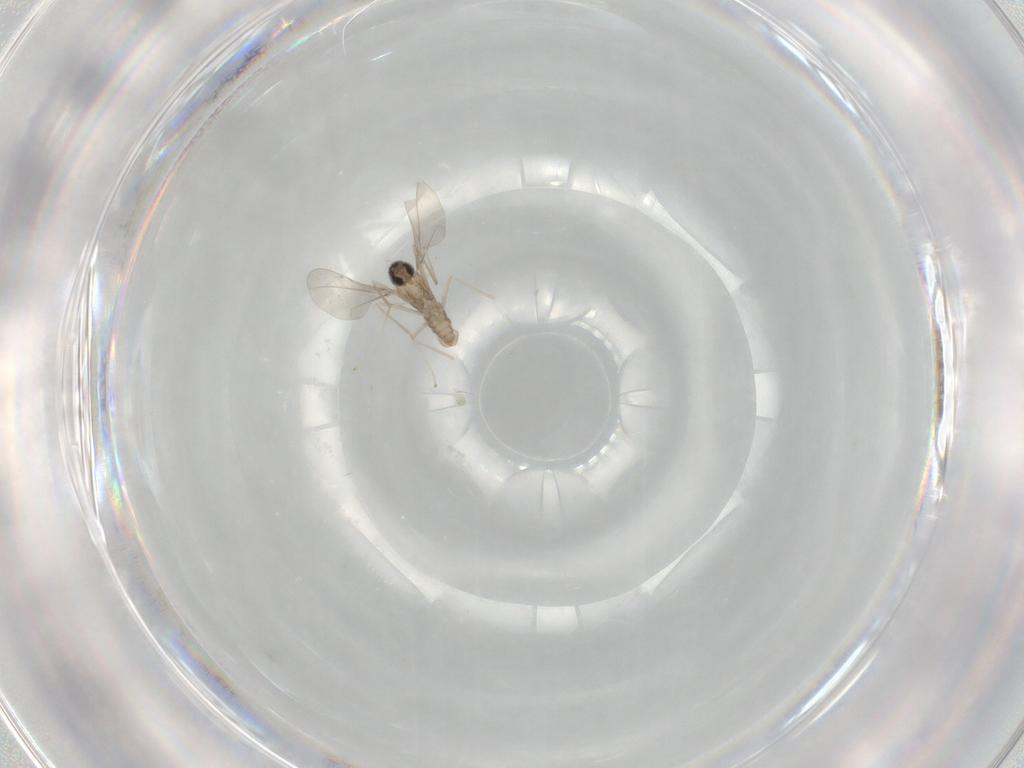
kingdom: Animalia
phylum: Arthropoda
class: Insecta
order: Diptera
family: Cecidomyiidae
